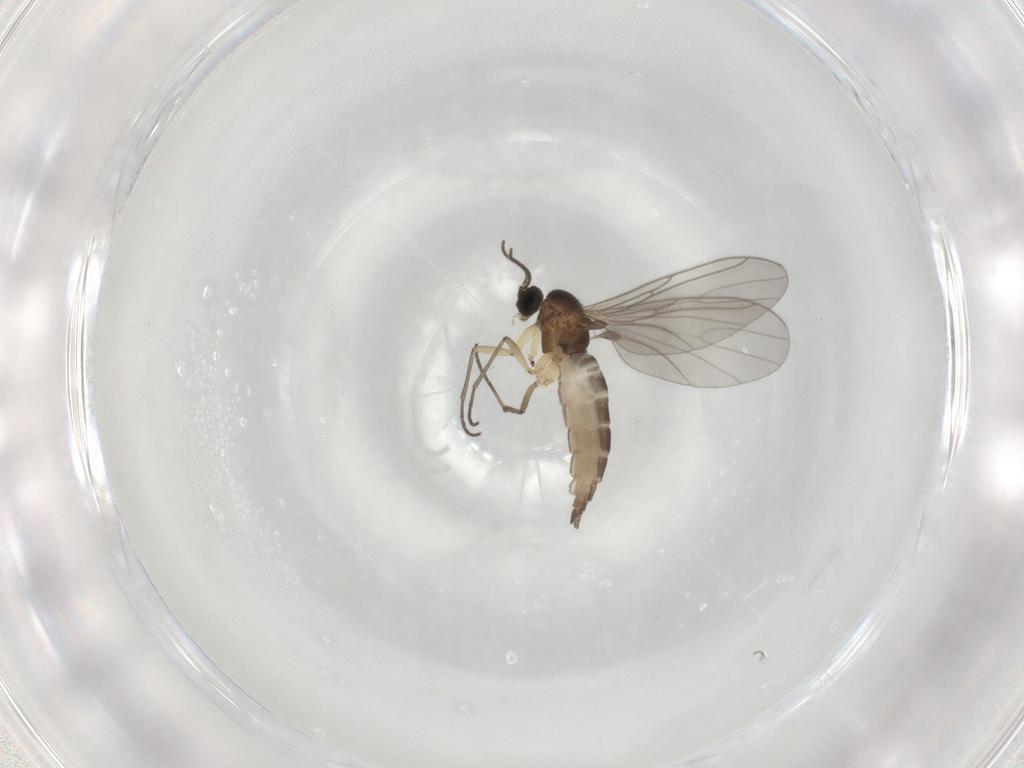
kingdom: Animalia
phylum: Arthropoda
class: Insecta
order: Diptera
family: Sciaridae
